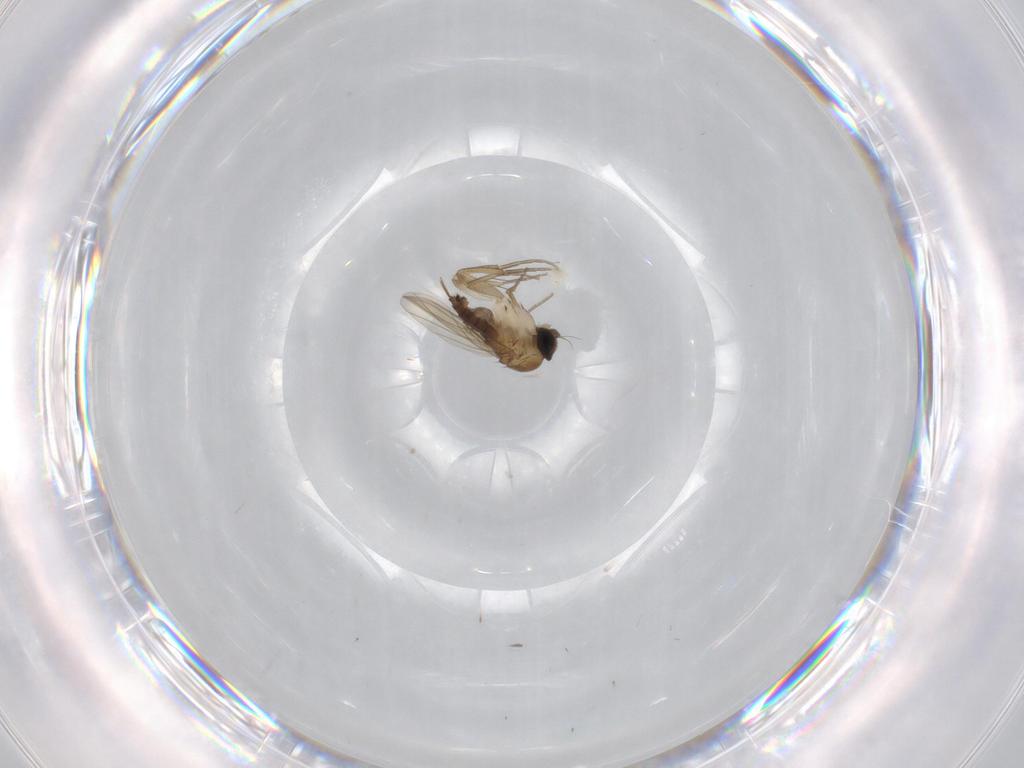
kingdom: Animalia
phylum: Arthropoda
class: Insecta
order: Diptera
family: Phoridae
